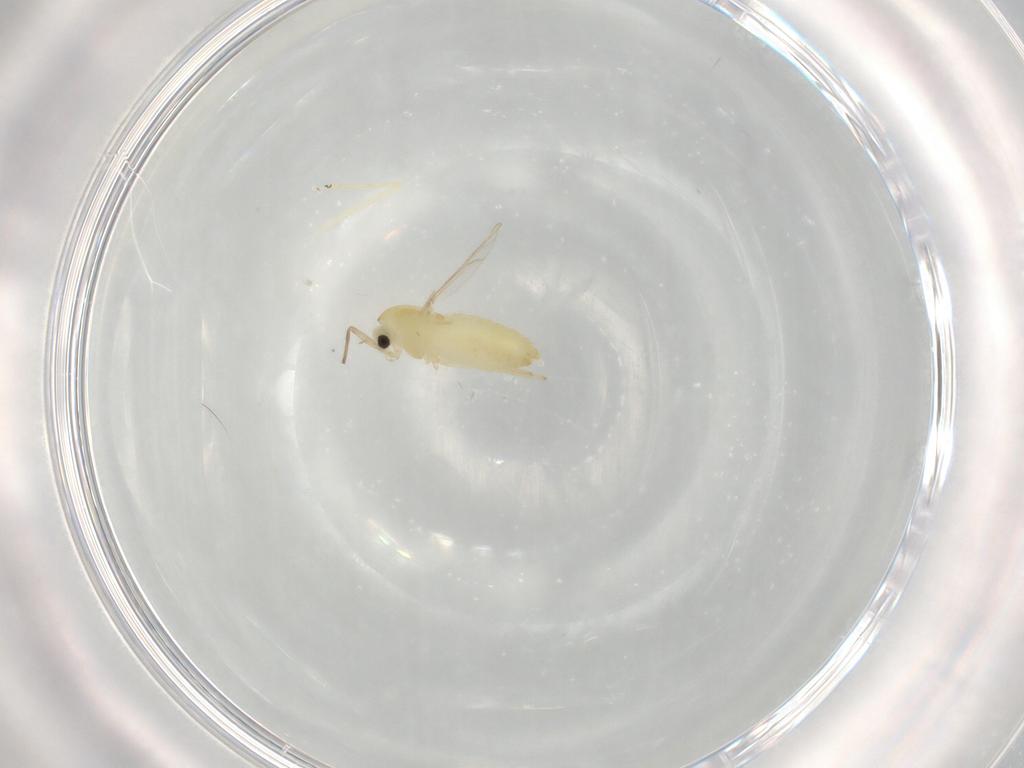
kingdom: Animalia
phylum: Arthropoda
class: Insecta
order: Diptera
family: Chironomidae
